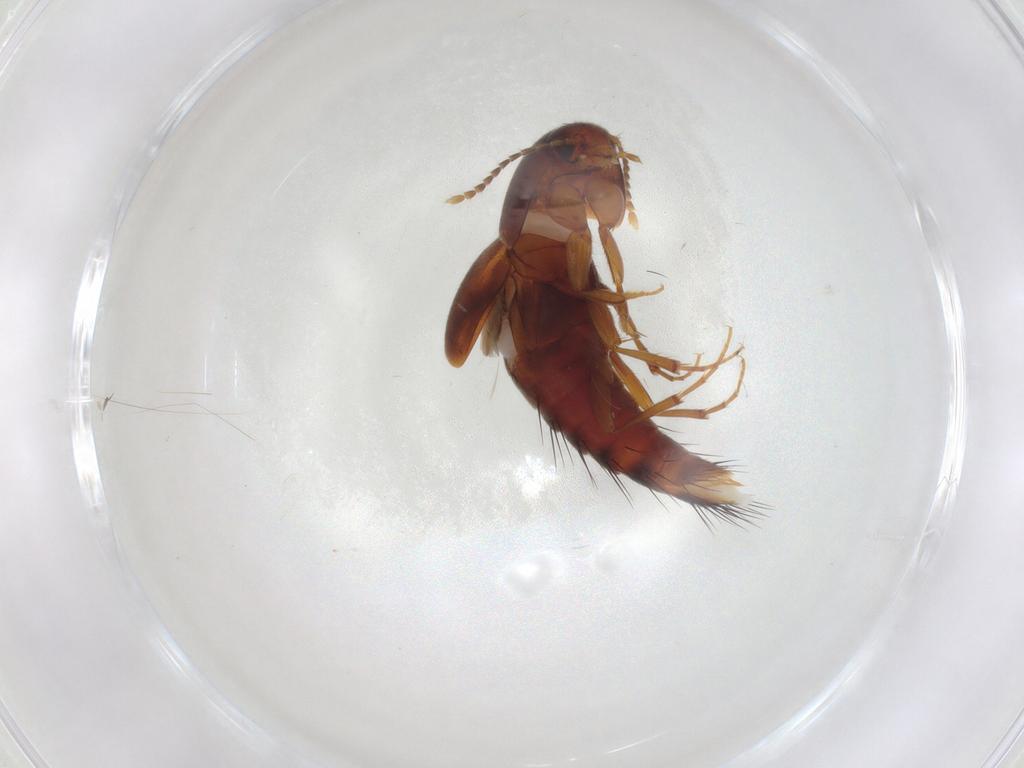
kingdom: Animalia
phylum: Arthropoda
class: Insecta
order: Coleoptera
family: Staphylinidae
